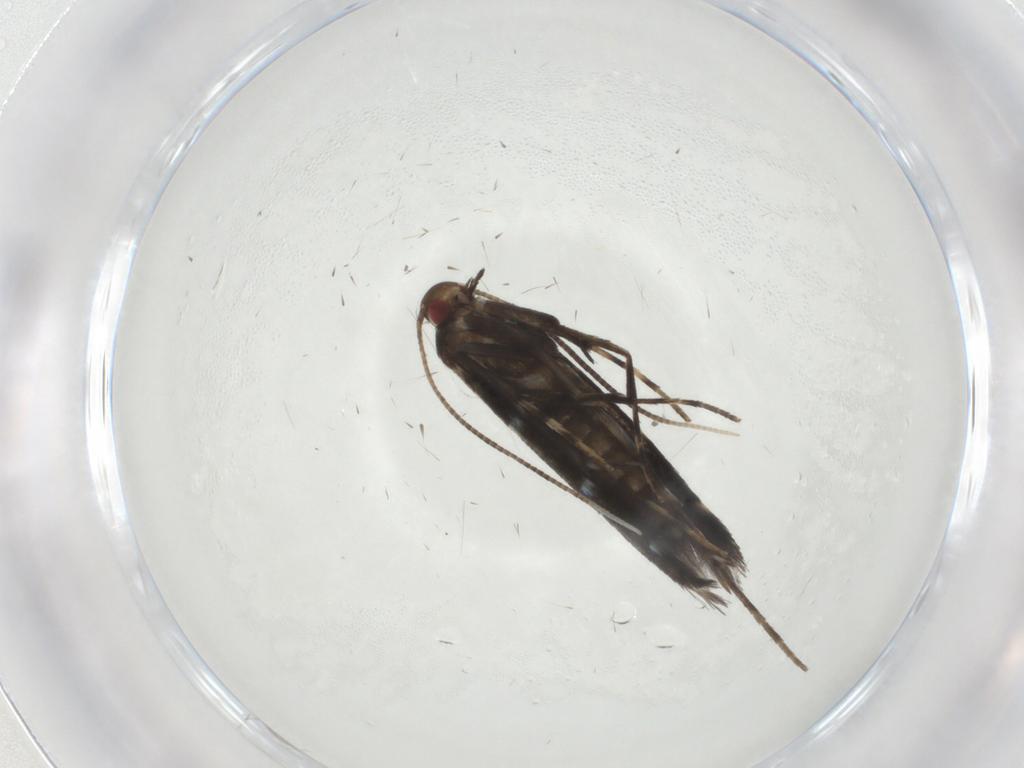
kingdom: Animalia
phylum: Arthropoda
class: Insecta
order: Lepidoptera
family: Gracillariidae
